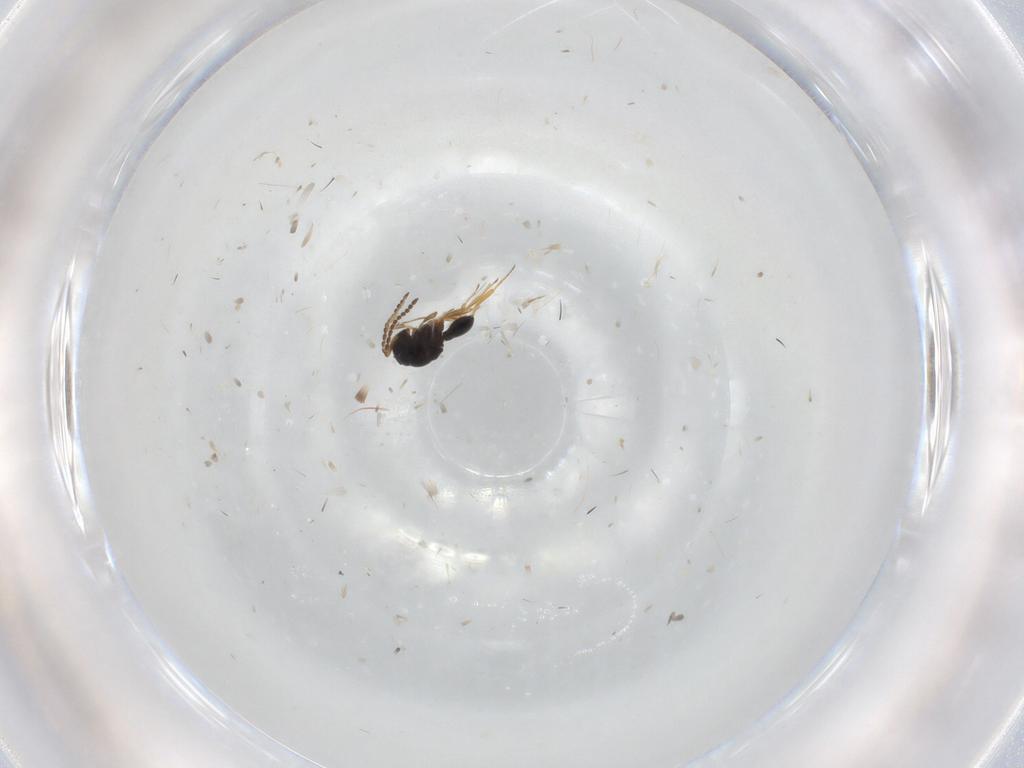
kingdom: Animalia
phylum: Arthropoda
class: Insecta
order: Hymenoptera
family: Scelionidae
